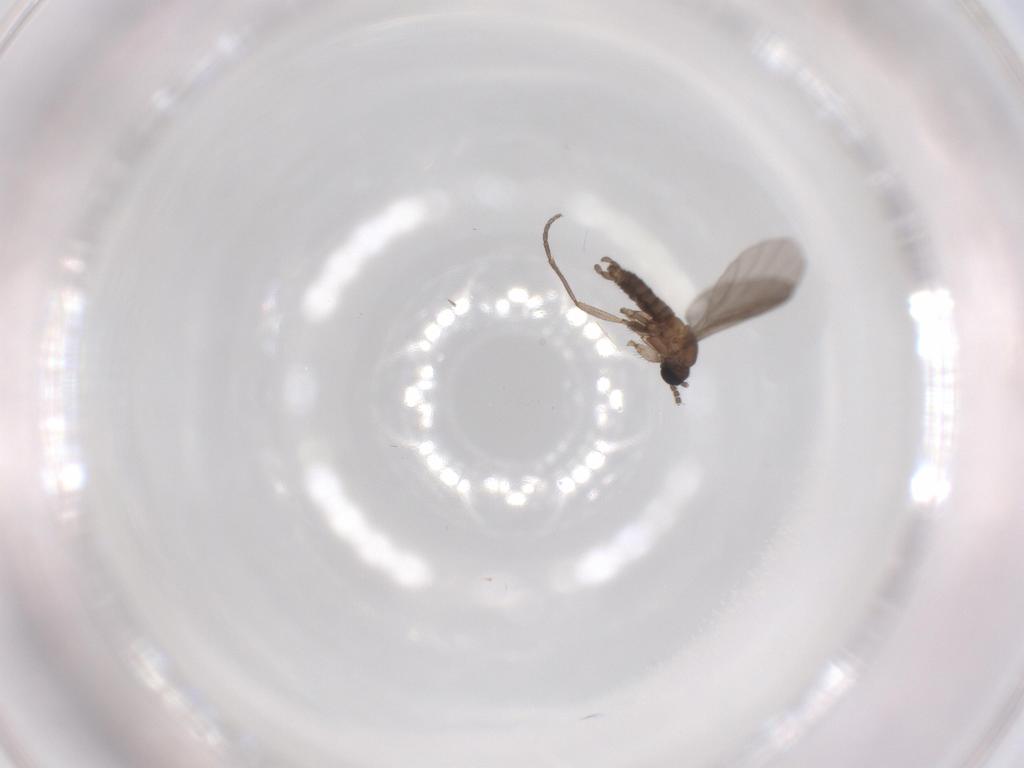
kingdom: Animalia
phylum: Arthropoda
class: Insecta
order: Diptera
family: Sciaridae
